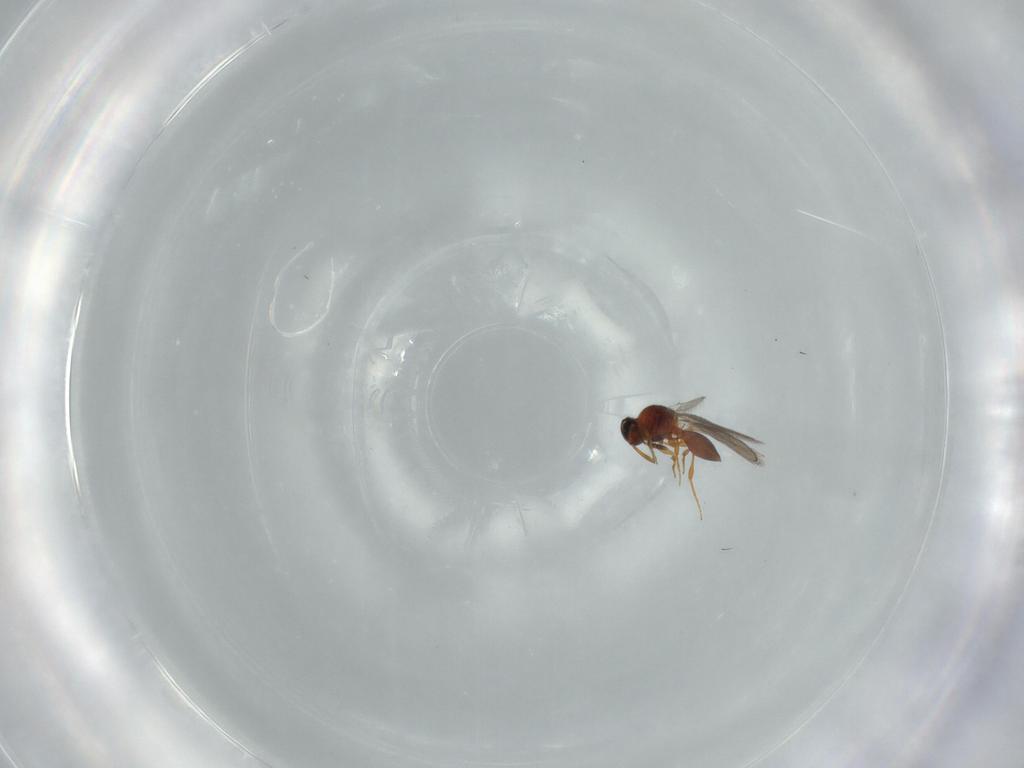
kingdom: Animalia
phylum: Arthropoda
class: Insecta
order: Hymenoptera
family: Platygastridae
